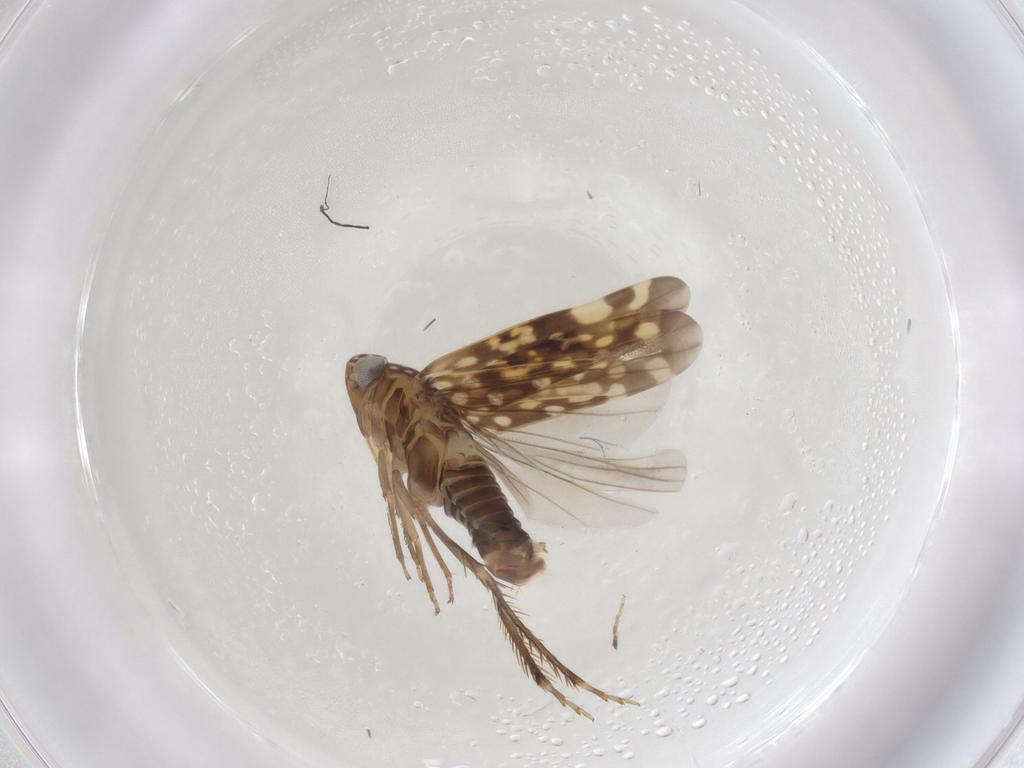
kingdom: Animalia
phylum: Arthropoda
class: Insecta
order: Hemiptera
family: Cicadellidae
